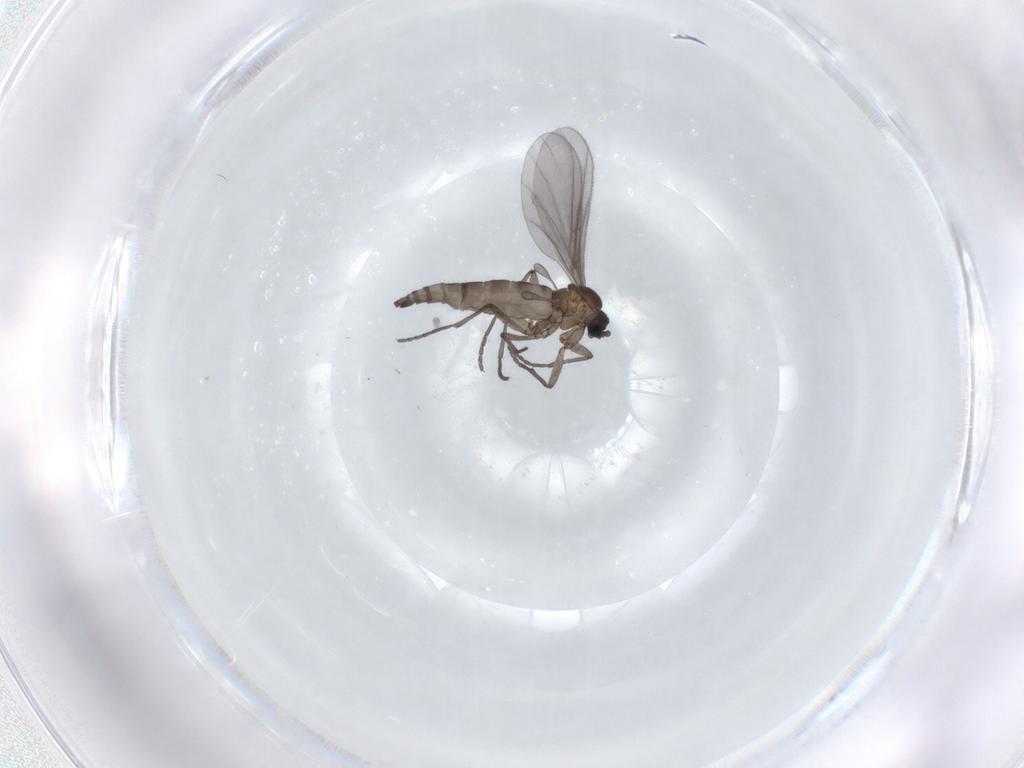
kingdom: Animalia
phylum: Arthropoda
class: Insecta
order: Diptera
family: Sciaridae
